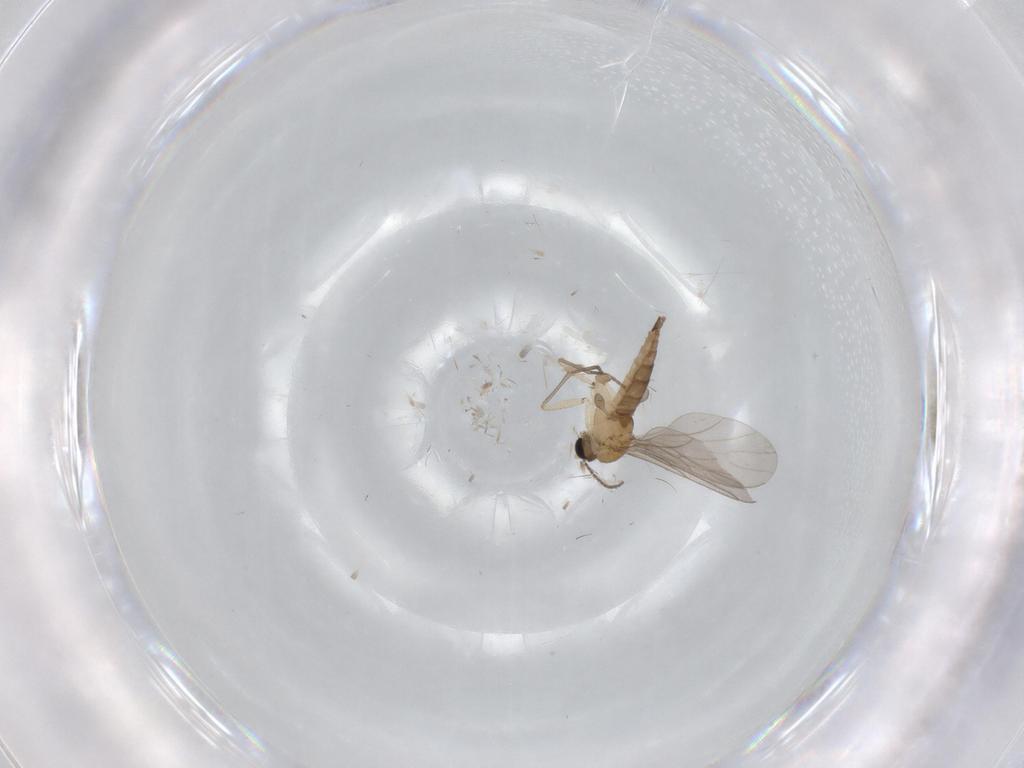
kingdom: Animalia
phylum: Arthropoda
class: Insecta
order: Diptera
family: Sciaridae
